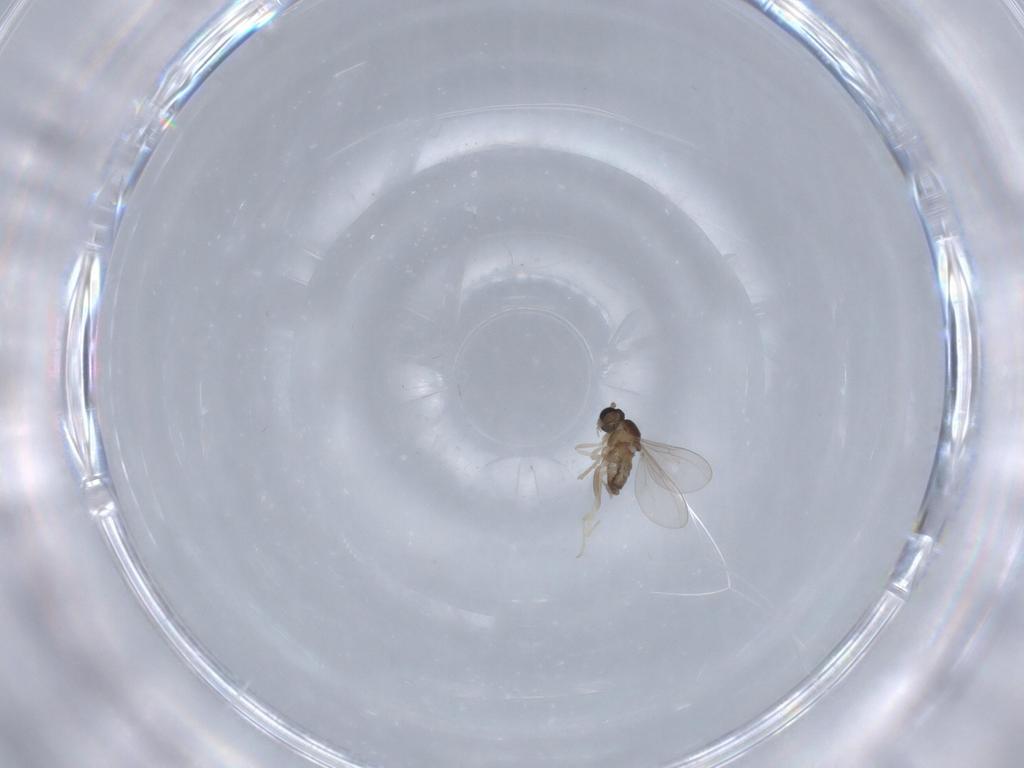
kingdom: Animalia
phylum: Arthropoda
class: Insecta
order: Diptera
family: Cecidomyiidae
